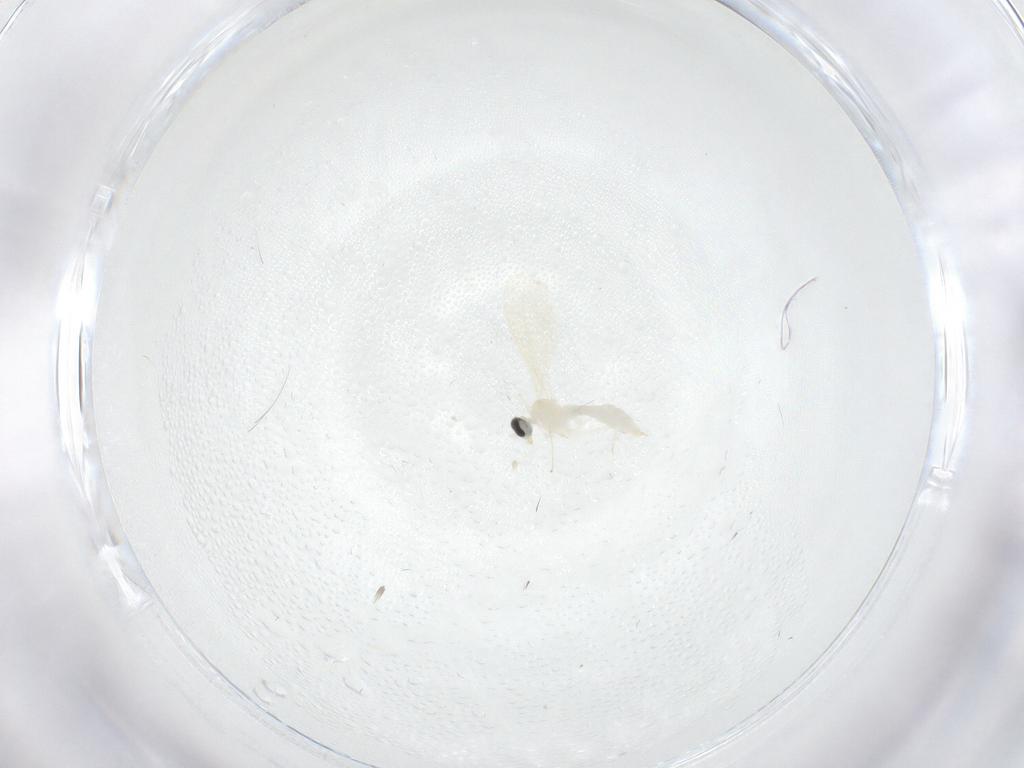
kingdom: Animalia
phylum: Arthropoda
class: Insecta
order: Diptera
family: Cecidomyiidae
